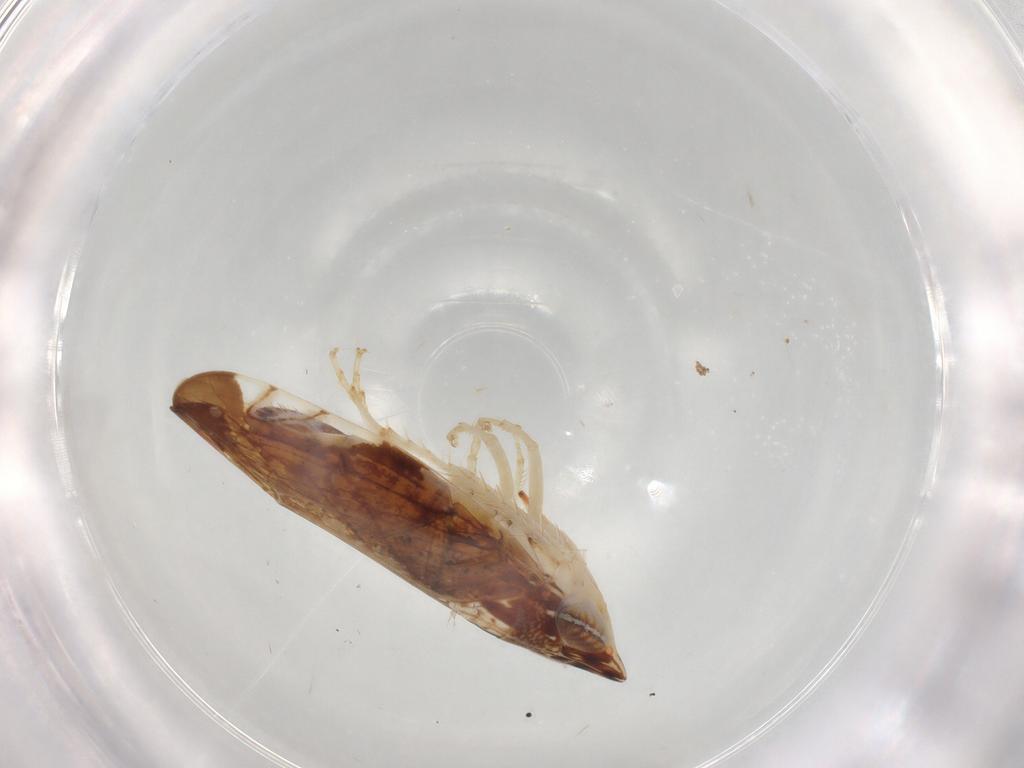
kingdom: Animalia
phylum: Arthropoda
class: Insecta
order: Hemiptera
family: Cicadellidae
